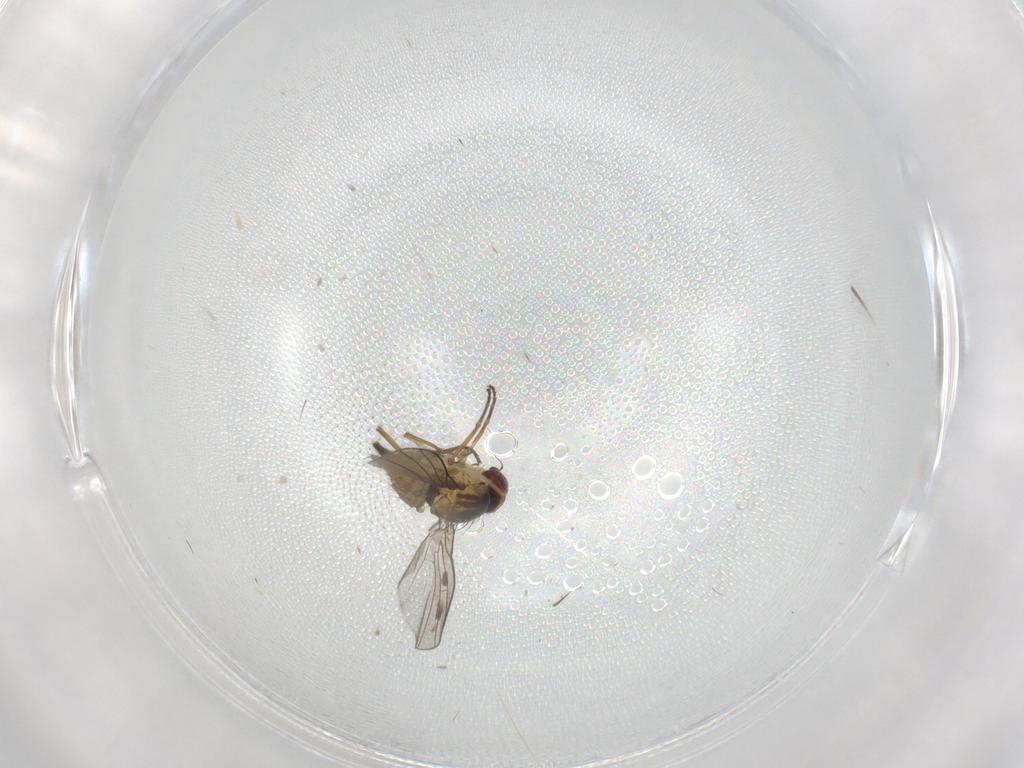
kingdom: Animalia
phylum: Arthropoda
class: Insecta
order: Diptera
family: Agromyzidae
